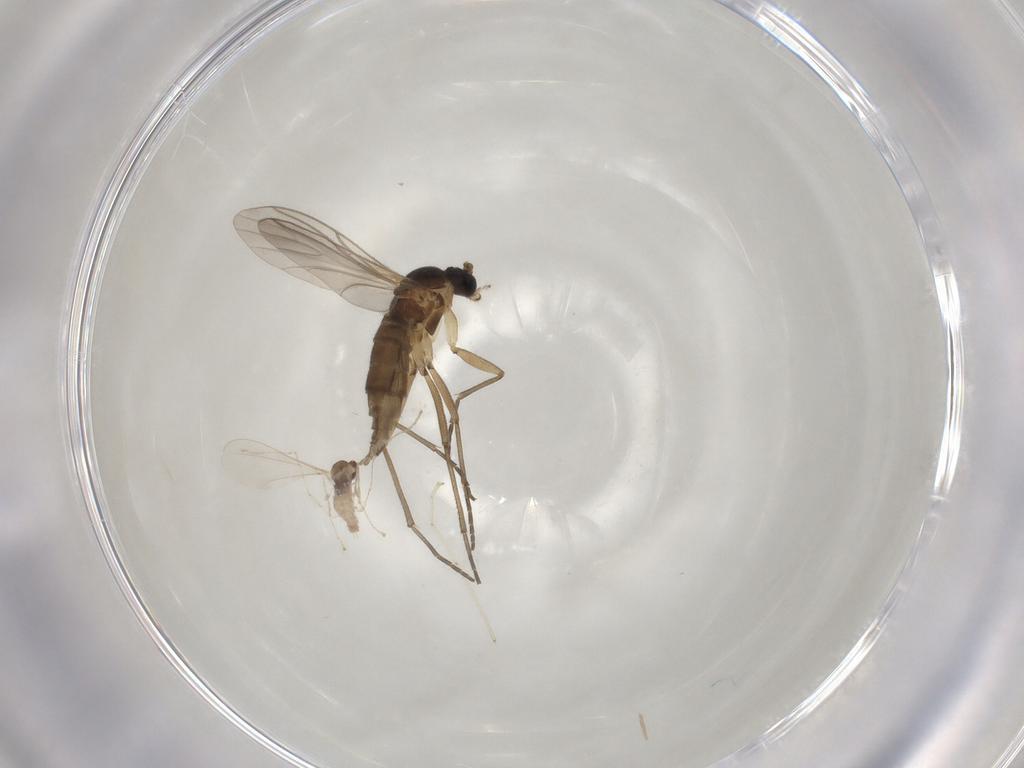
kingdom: Animalia
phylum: Arthropoda
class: Insecta
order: Diptera
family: Cecidomyiidae
